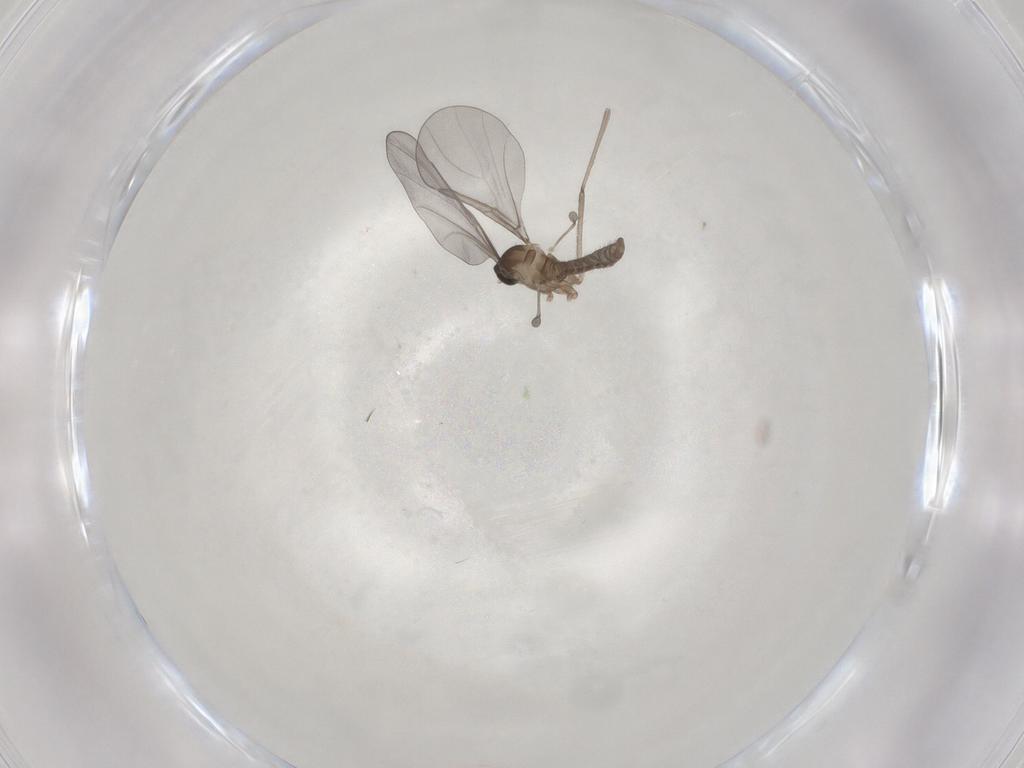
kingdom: Animalia
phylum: Arthropoda
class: Insecta
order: Diptera
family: Cecidomyiidae
